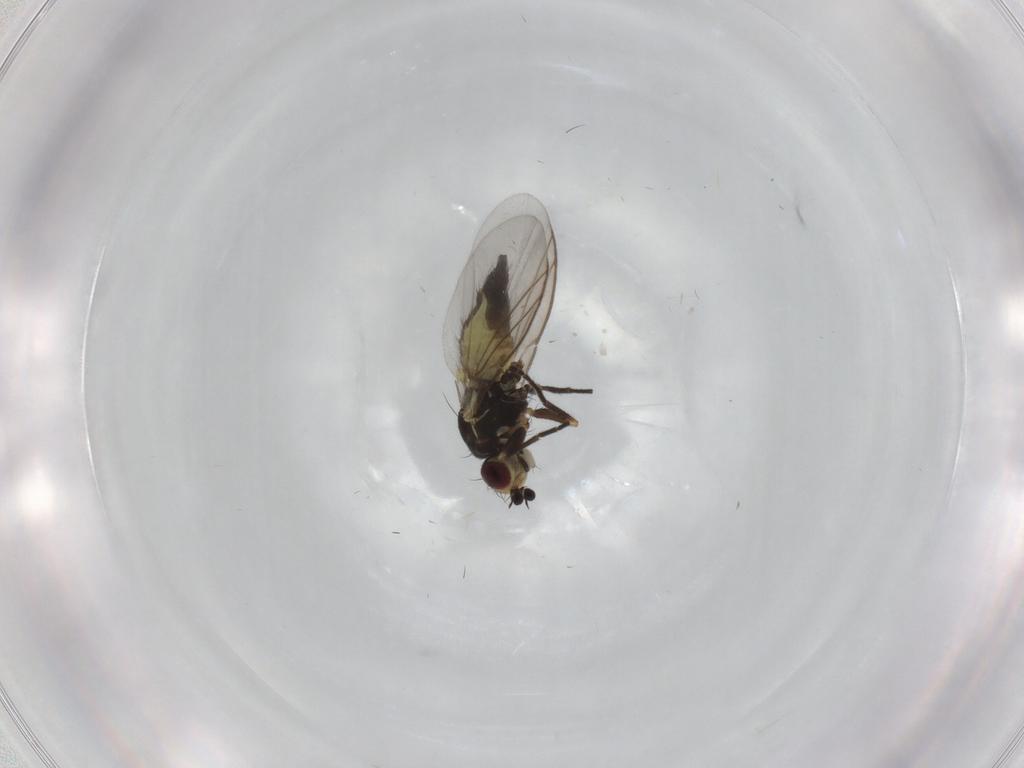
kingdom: Animalia
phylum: Arthropoda
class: Insecta
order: Diptera
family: Agromyzidae
